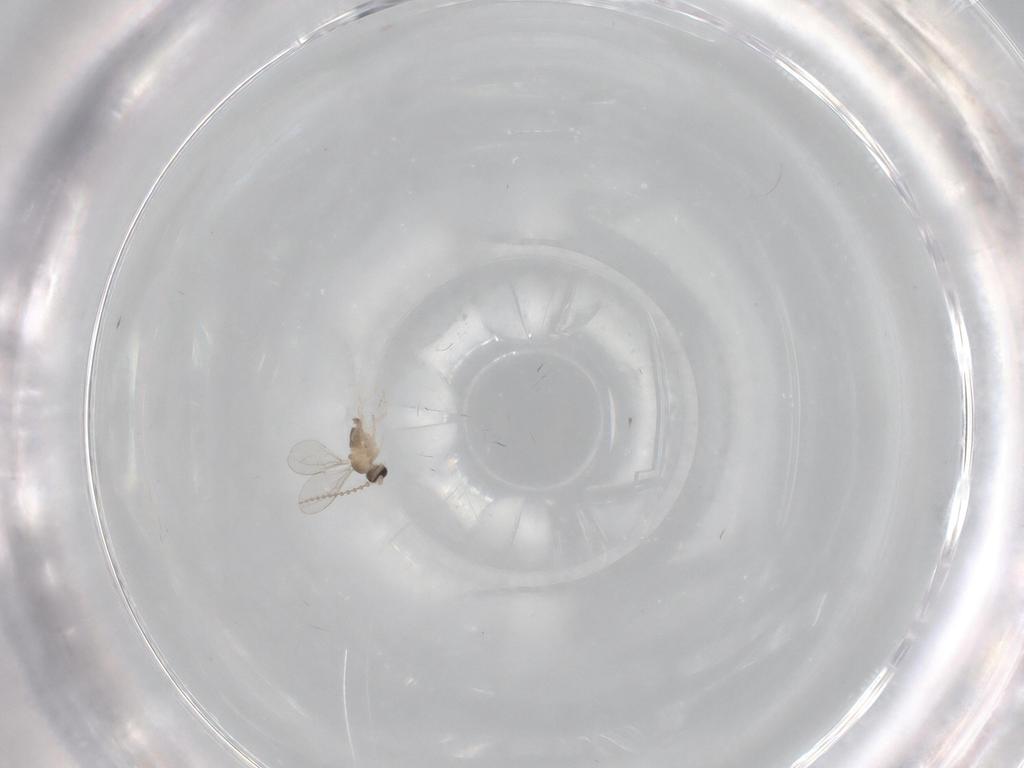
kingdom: Animalia
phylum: Arthropoda
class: Insecta
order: Diptera
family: Cecidomyiidae
